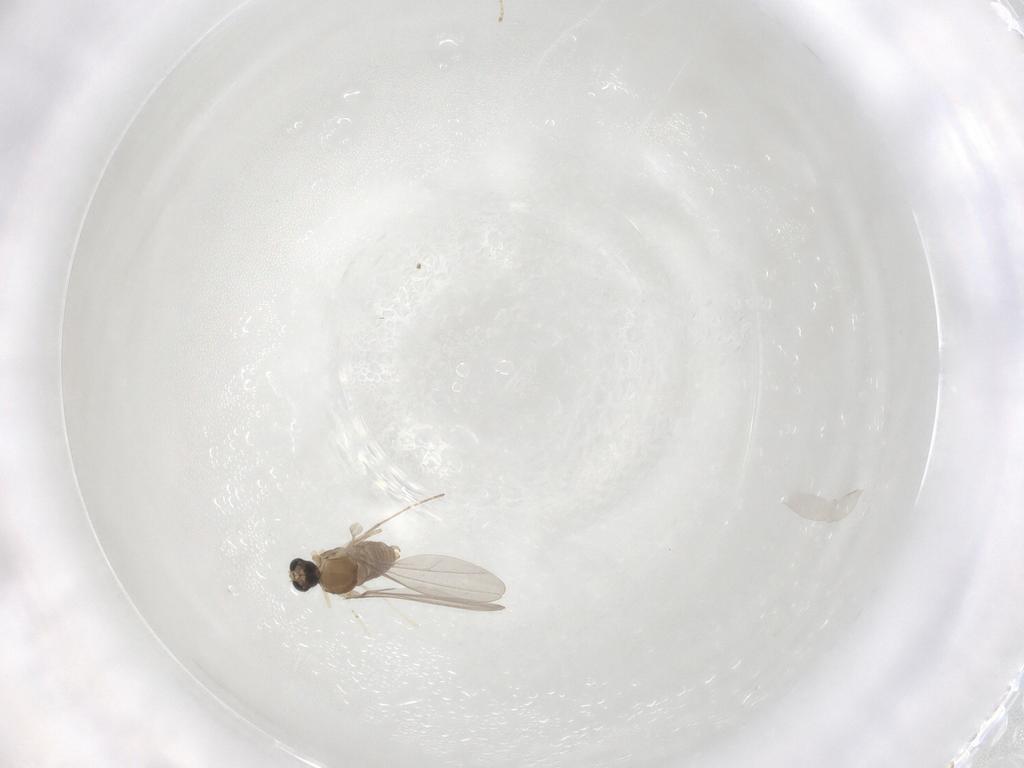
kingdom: Animalia
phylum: Arthropoda
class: Insecta
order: Diptera
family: Cecidomyiidae
